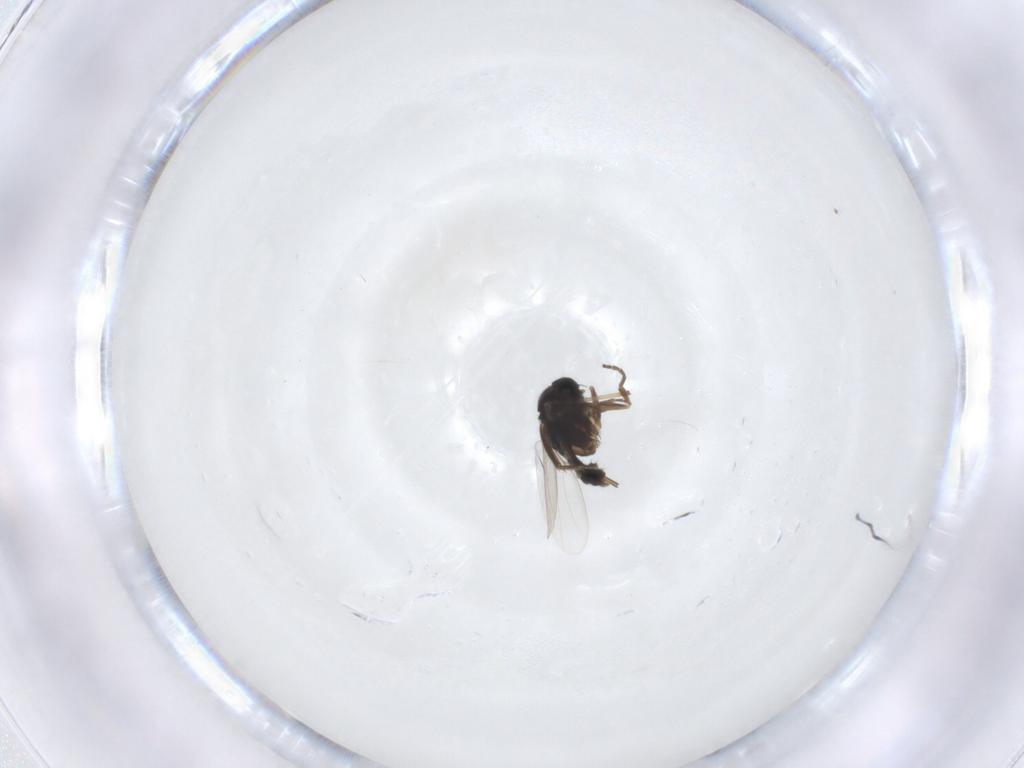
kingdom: Animalia
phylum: Arthropoda
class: Insecta
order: Diptera
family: Phoridae
